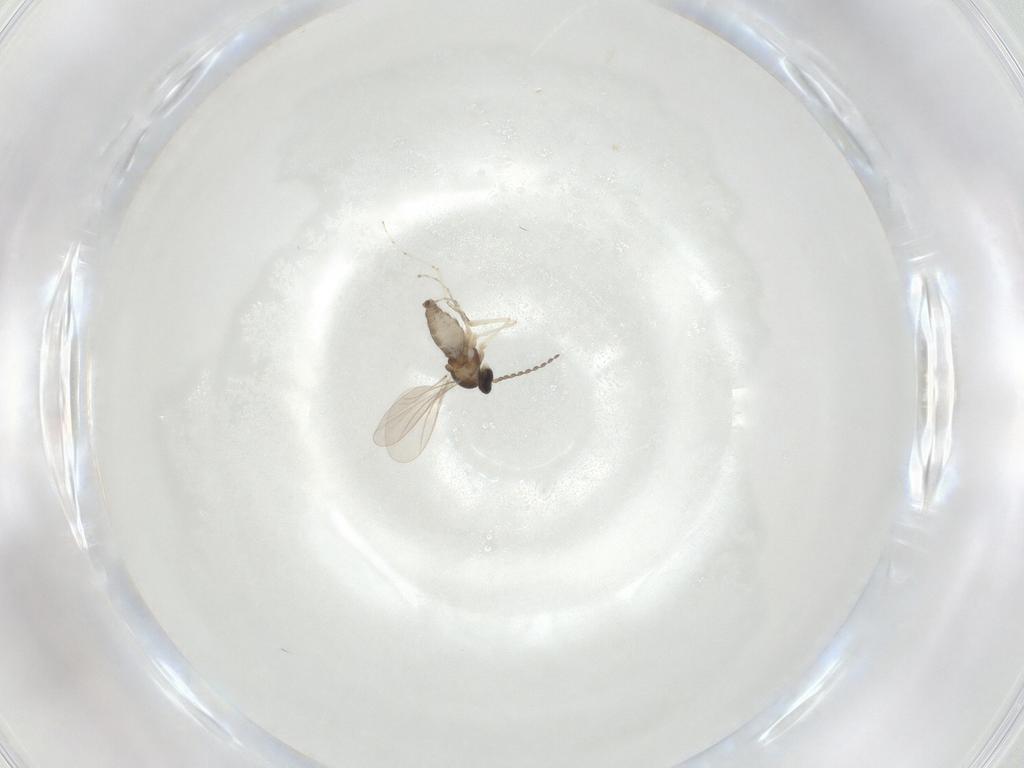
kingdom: Animalia
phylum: Arthropoda
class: Insecta
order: Diptera
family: Cecidomyiidae
